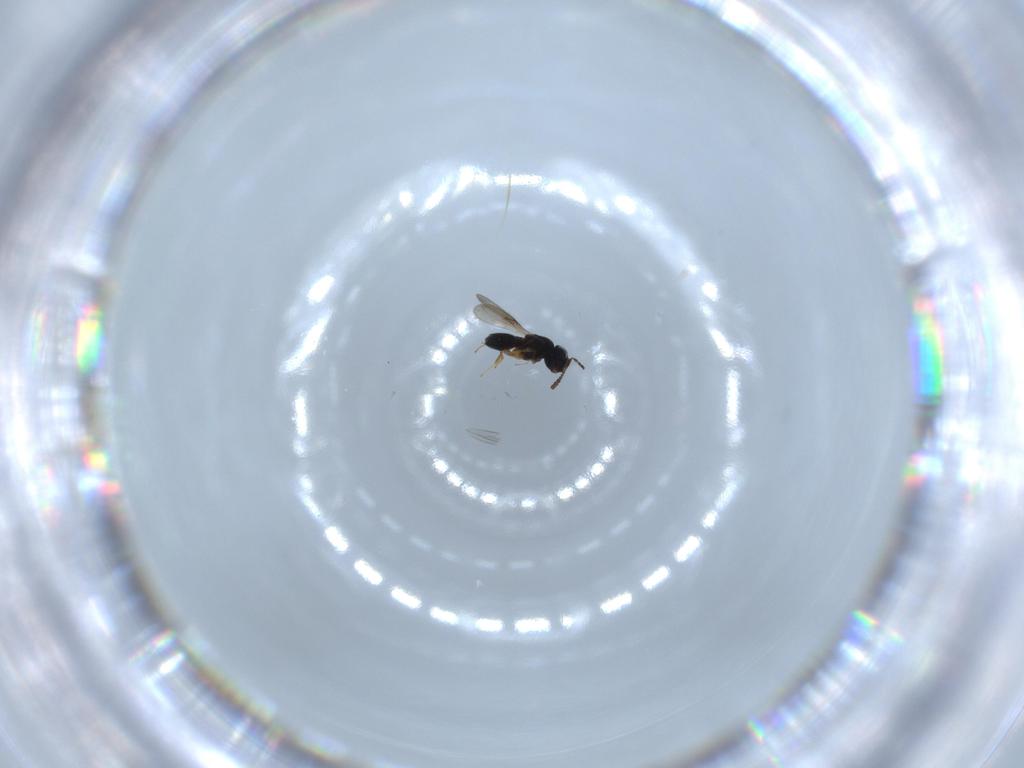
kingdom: Animalia
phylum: Arthropoda
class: Insecta
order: Hymenoptera
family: Scelionidae
